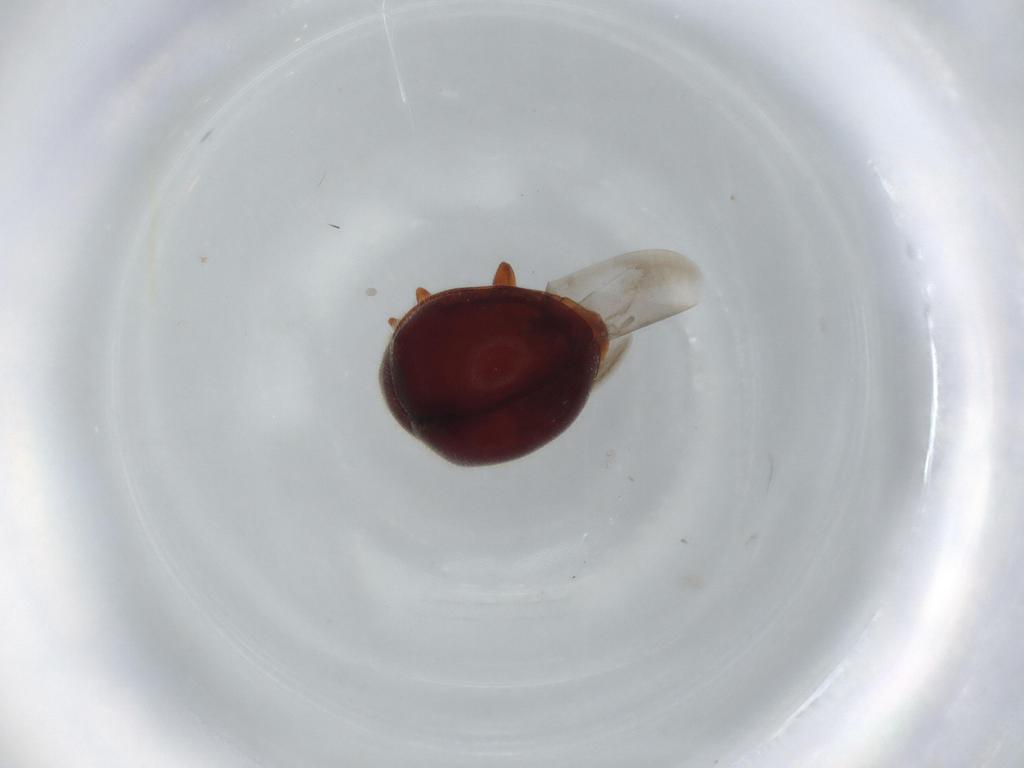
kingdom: Animalia
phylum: Arthropoda
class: Insecta
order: Coleoptera
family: Coccinellidae
